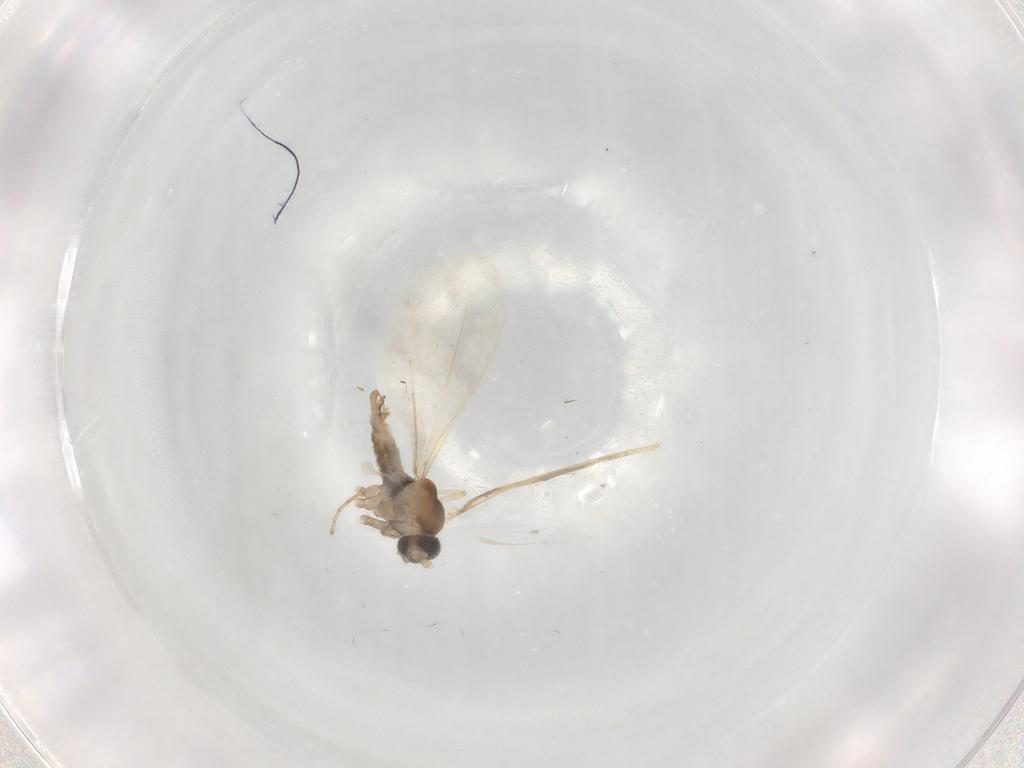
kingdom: Animalia
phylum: Arthropoda
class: Insecta
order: Diptera
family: Cecidomyiidae
